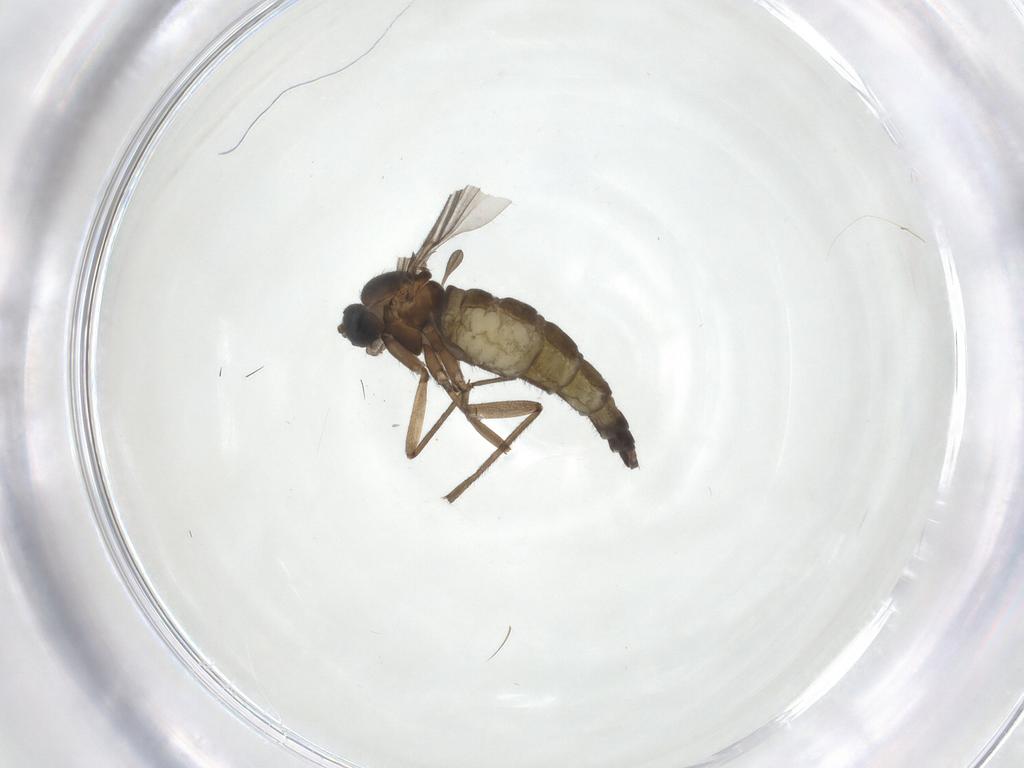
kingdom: Animalia
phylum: Arthropoda
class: Insecta
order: Diptera
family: Sciaridae
